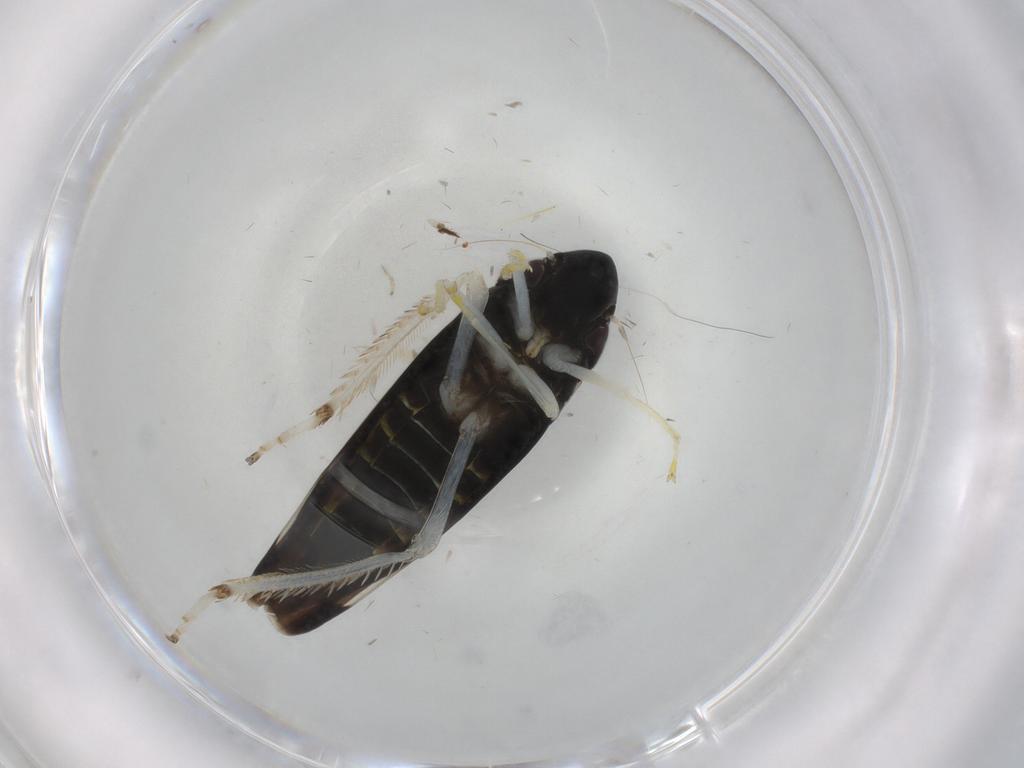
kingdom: Animalia
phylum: Arthropoda
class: Insecta
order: Hemiptera
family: Cicadellidae
